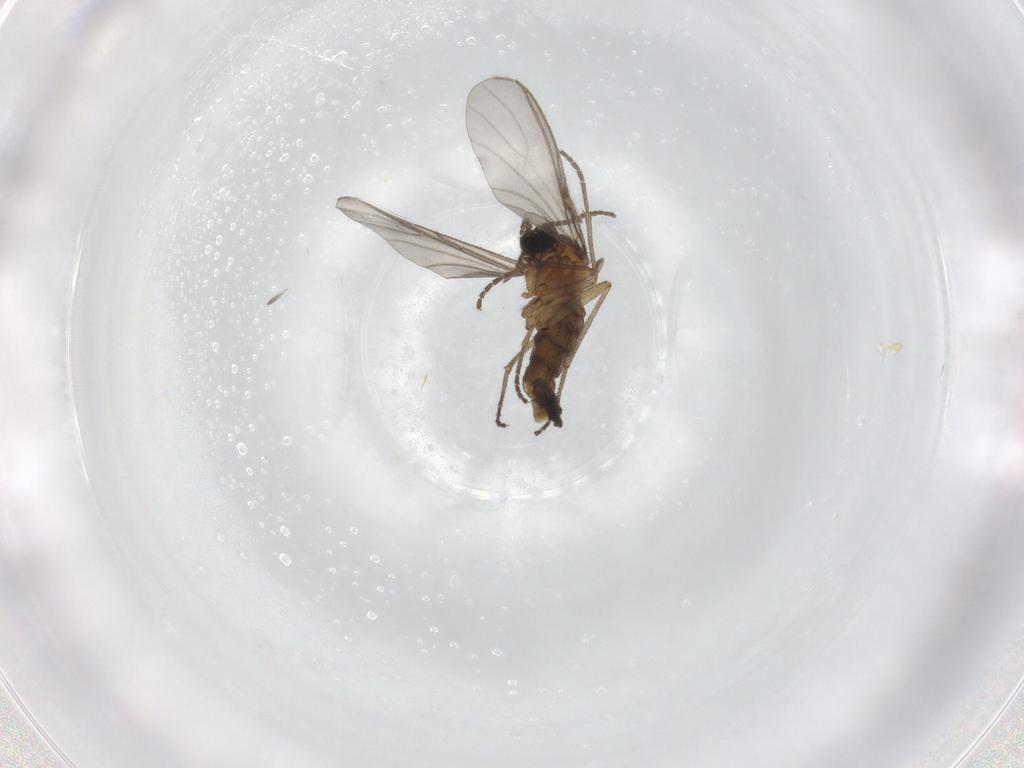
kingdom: Animalia
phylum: Arthropoda
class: Insecta
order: Diptera
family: Sciaridae
